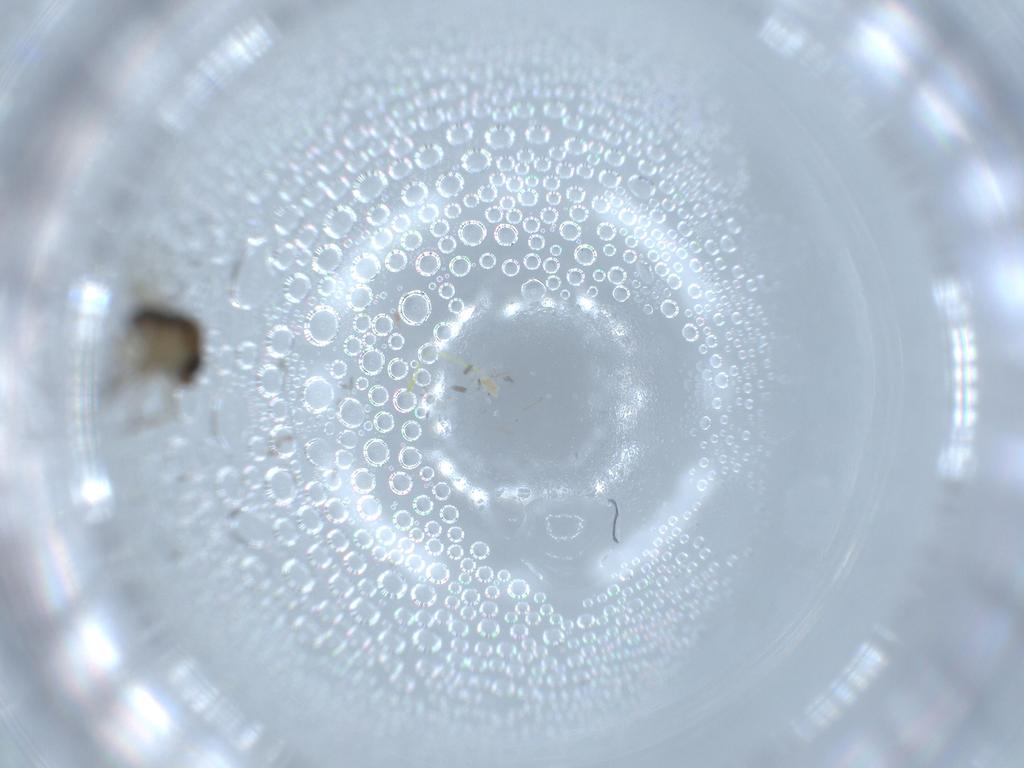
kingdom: Animalia
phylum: Arthropoda
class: Insecta
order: Diptera
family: Phoridae
